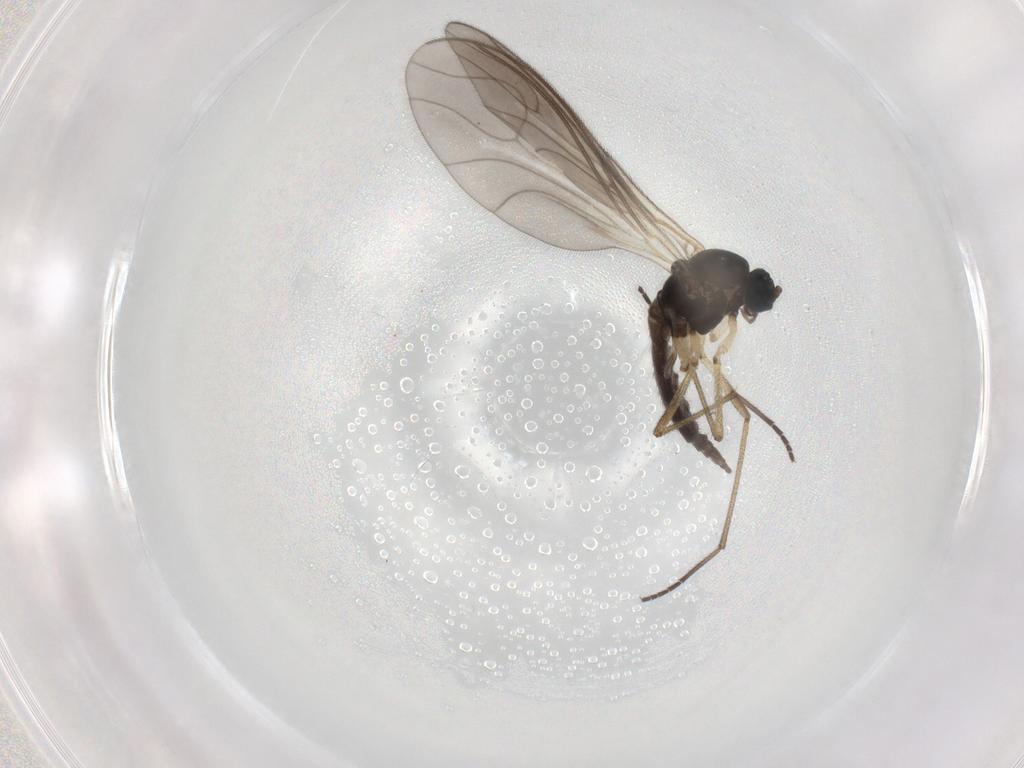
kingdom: Animalia
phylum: Arthropoda
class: Insecta
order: Diptera
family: Sciaridae
